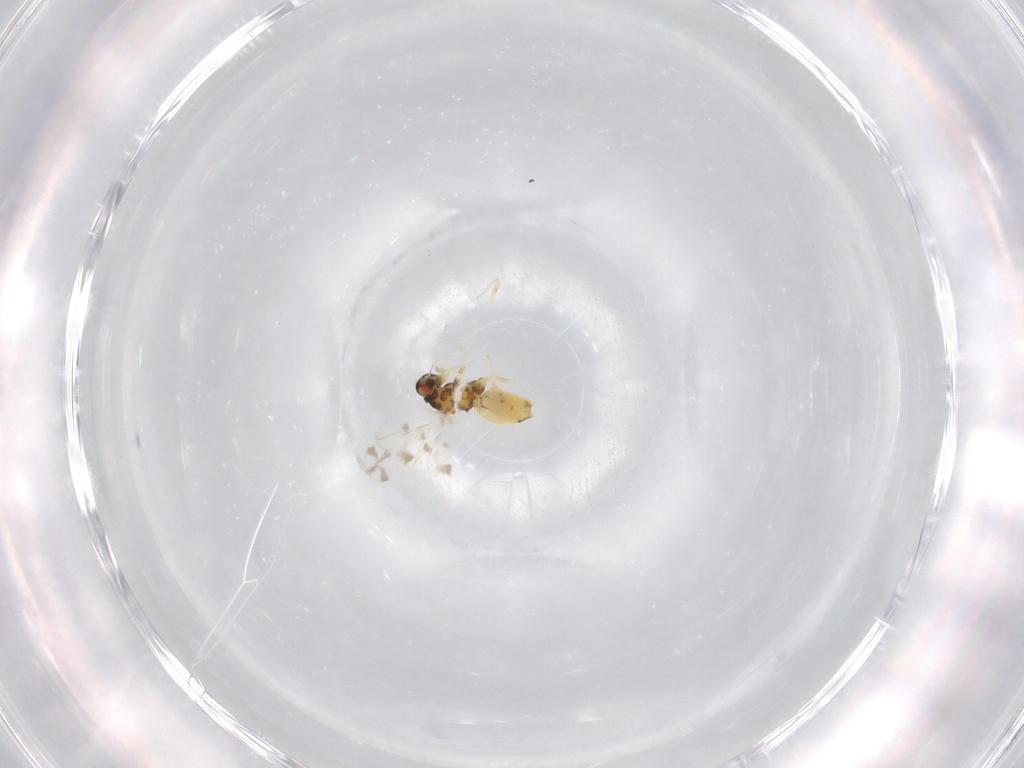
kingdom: Animalia
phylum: Arthropoda
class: Insecta
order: Hemiptera
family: Aleyrodidae
